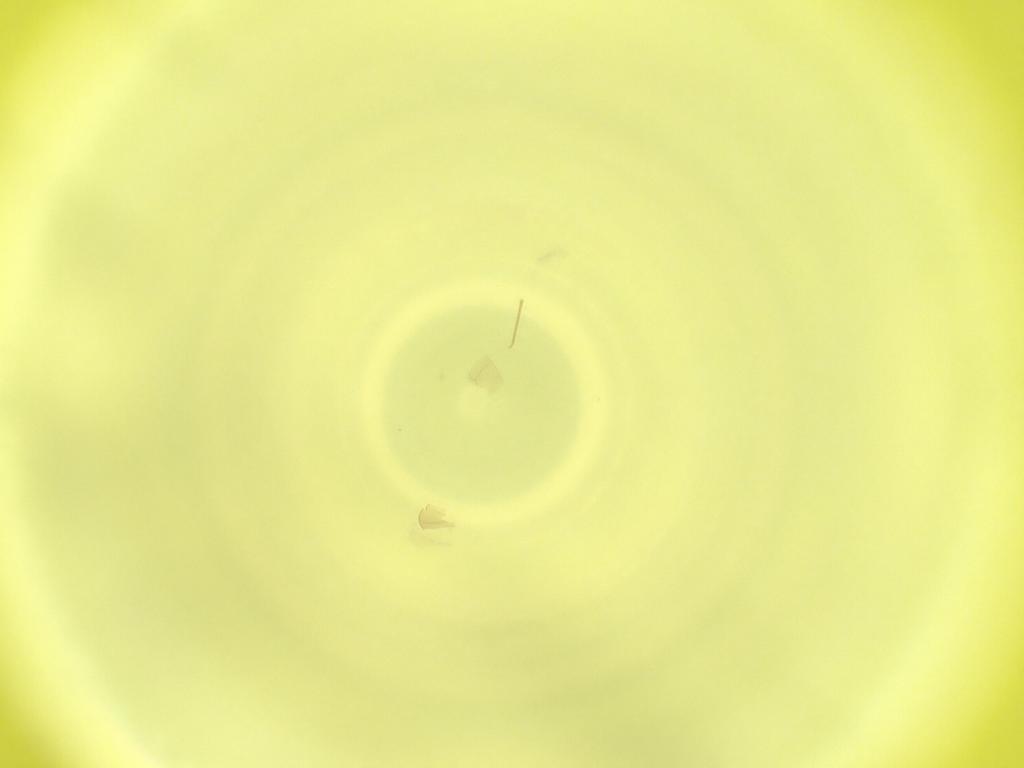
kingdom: Animalia
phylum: Arthropoda
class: Insecta
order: Diptera
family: Cecidomyiidae
